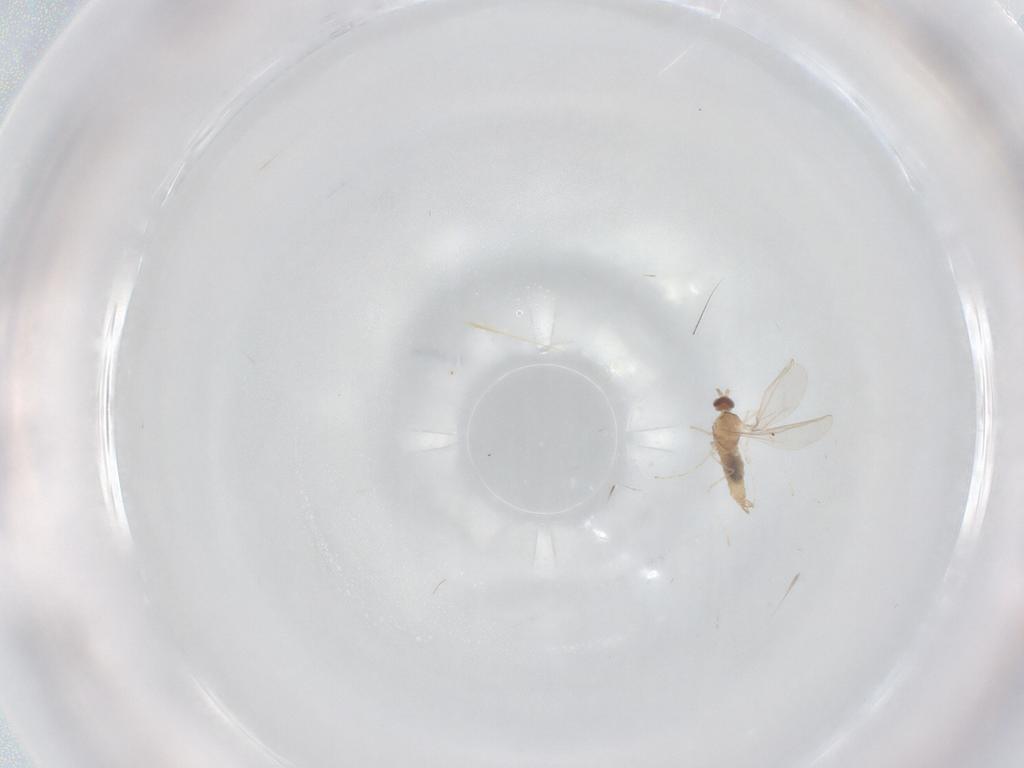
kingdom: Animalia
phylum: Arthropoda
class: Insecta
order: Diptera
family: Cecidomyiidae
